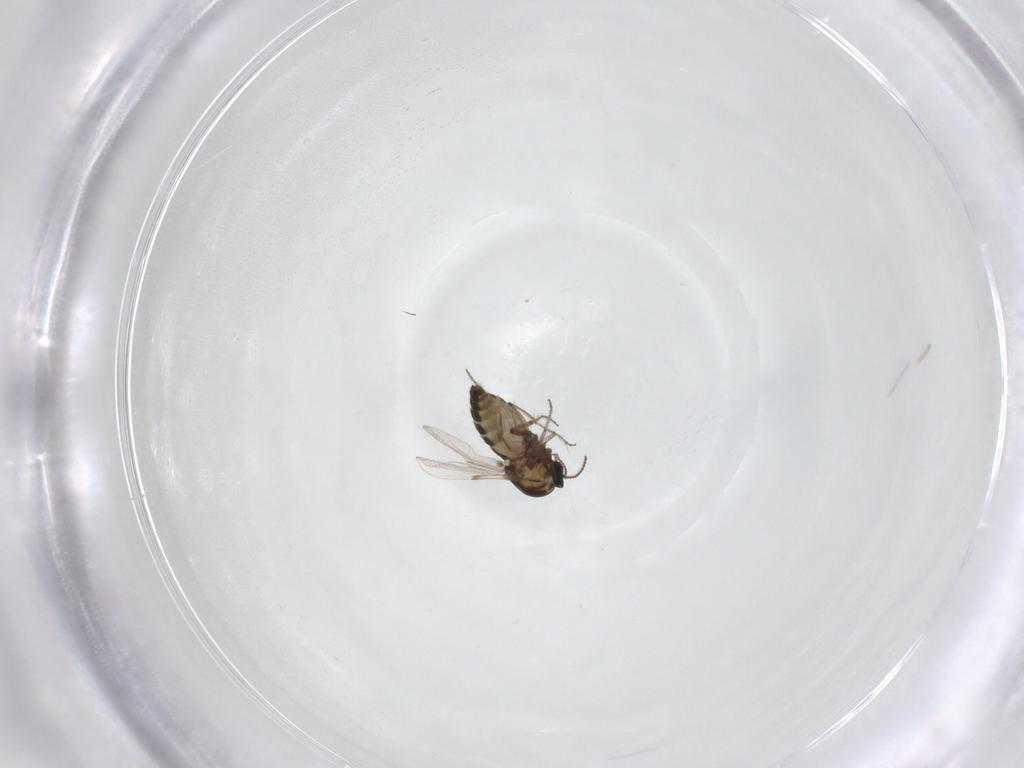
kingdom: Animalia
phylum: Arthropoda
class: Insecta
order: Diptera
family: Ceratopogonidae
